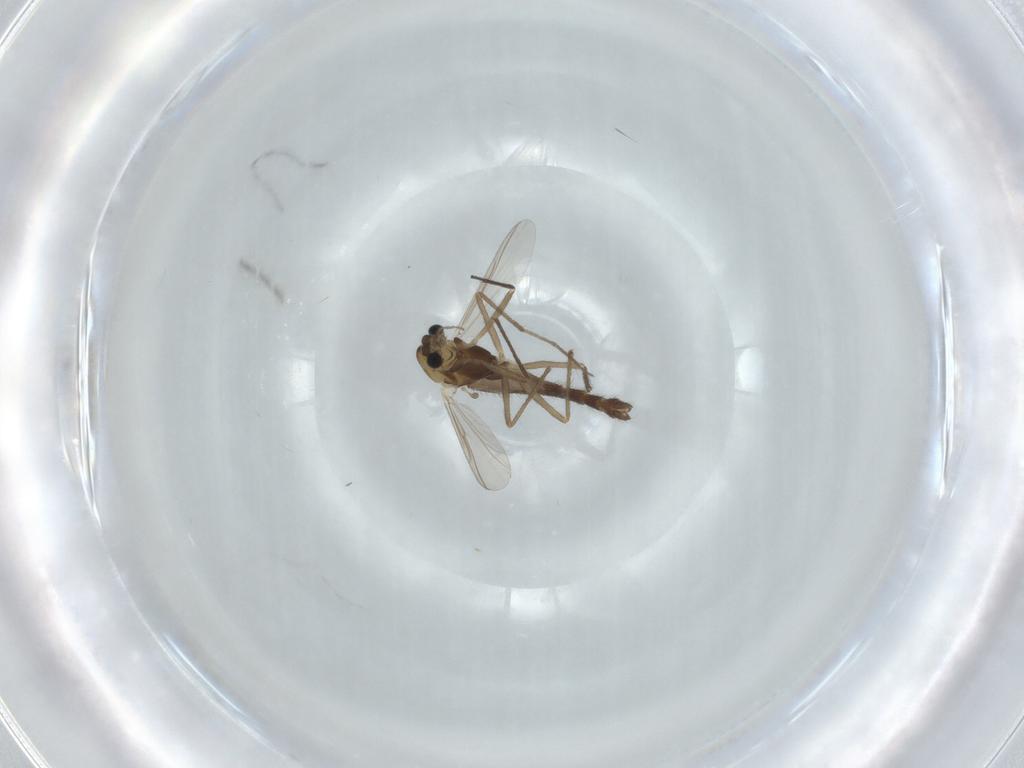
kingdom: Animalia
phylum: Arthropoda
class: Insecta
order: Diptera
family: Chironomidae
